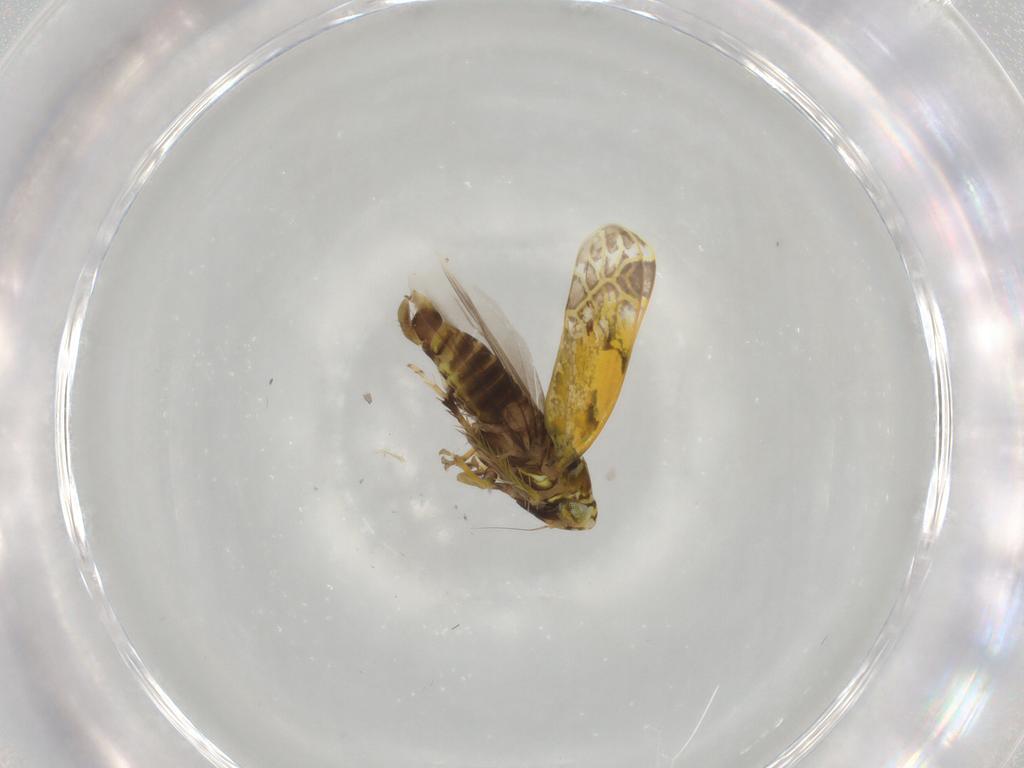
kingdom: Animalia
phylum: Arthropoda
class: Insecta
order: Hemiptera
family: Cicadellidae
